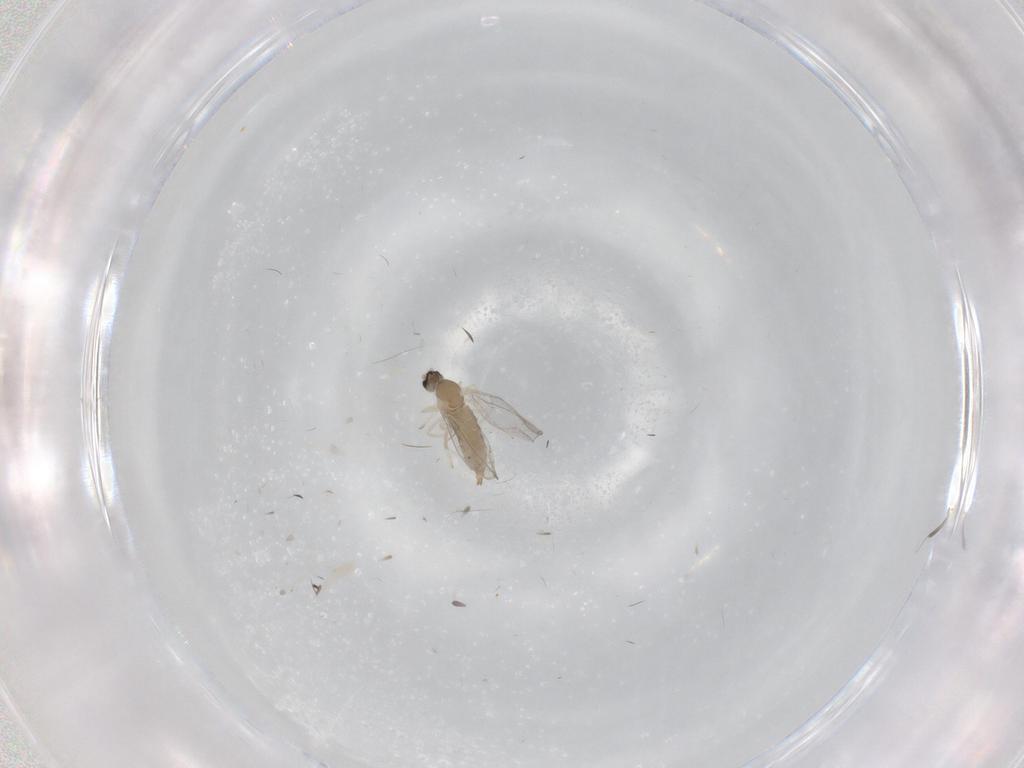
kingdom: Animalia
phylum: Arthropoda
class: Insecta
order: Diptera
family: Cecidomyiidae
